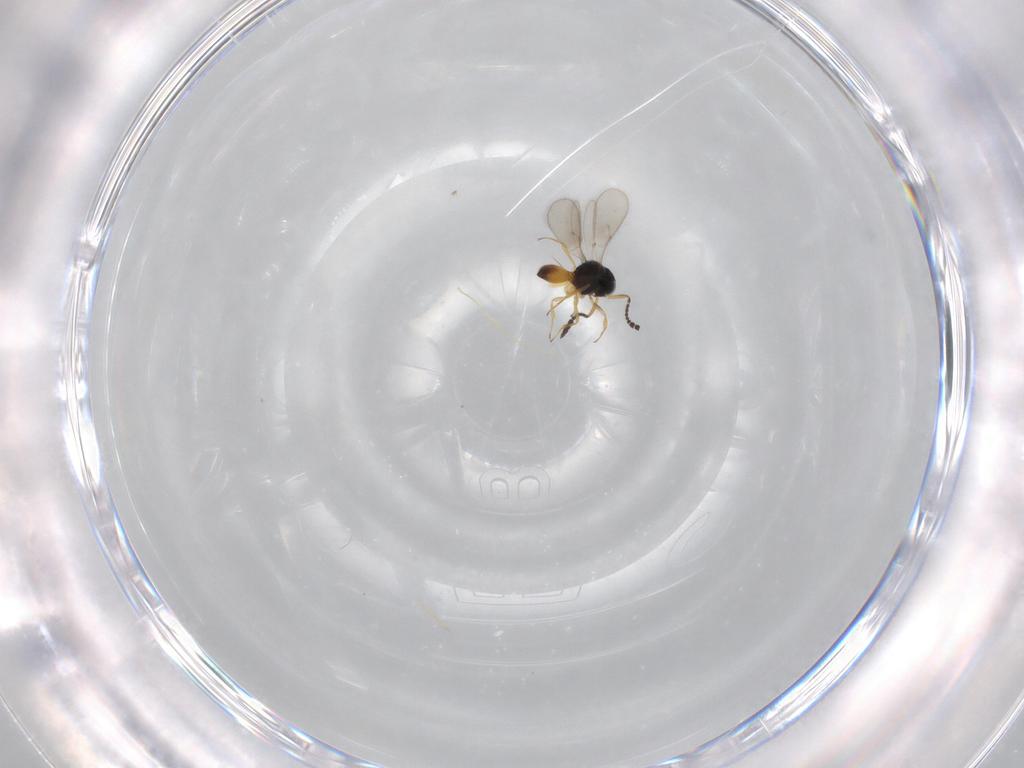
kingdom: Animalia
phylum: Arthropoda
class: Insecta
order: Hymenoptera
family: Scelionidae
